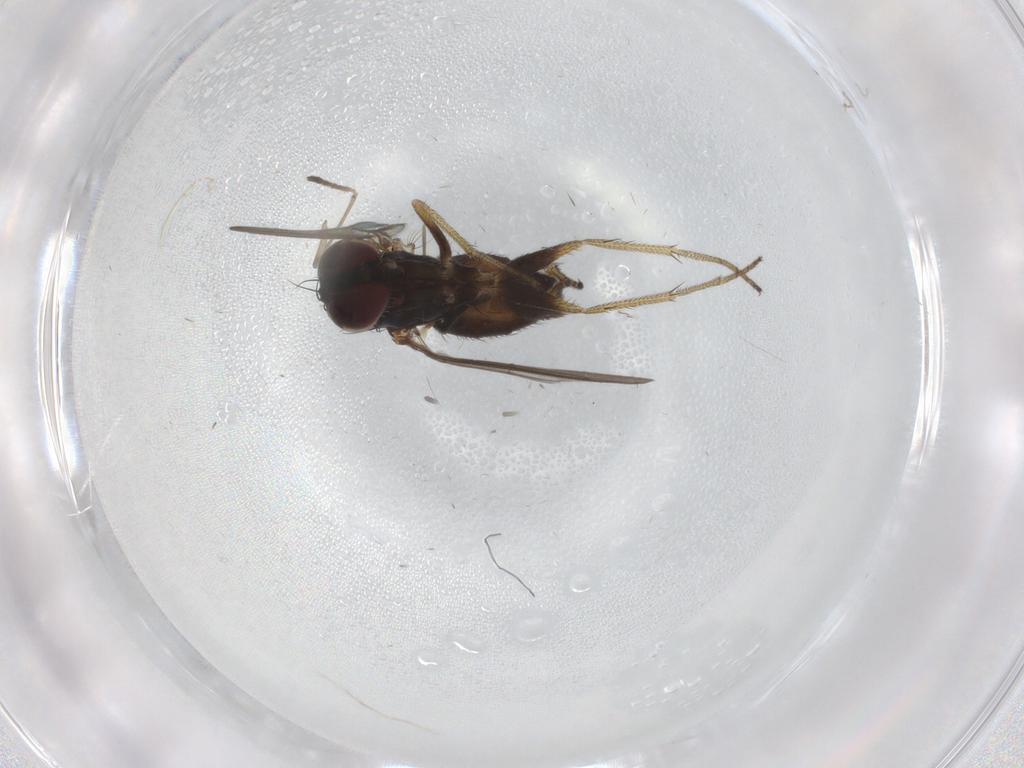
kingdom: Animalia
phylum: Arthropoda
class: Insecta
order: Diptera
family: Dolichopodidae
